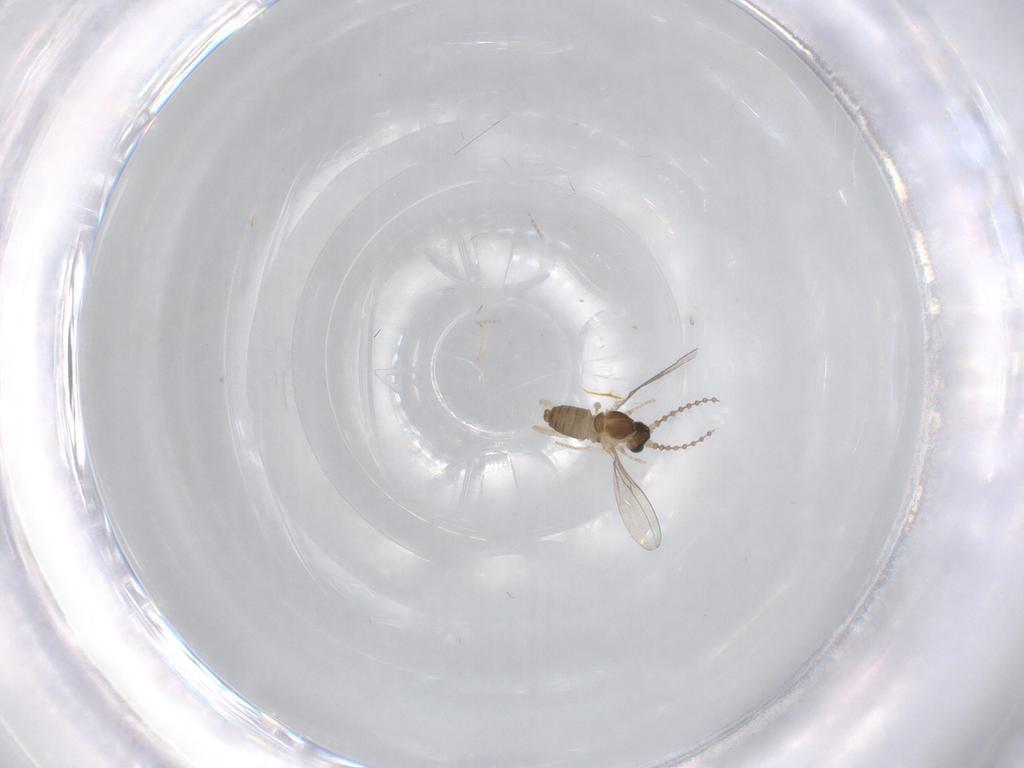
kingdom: Animalia
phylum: Arthropoda
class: Insecta
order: Diptera
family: Cecidomyiidae
